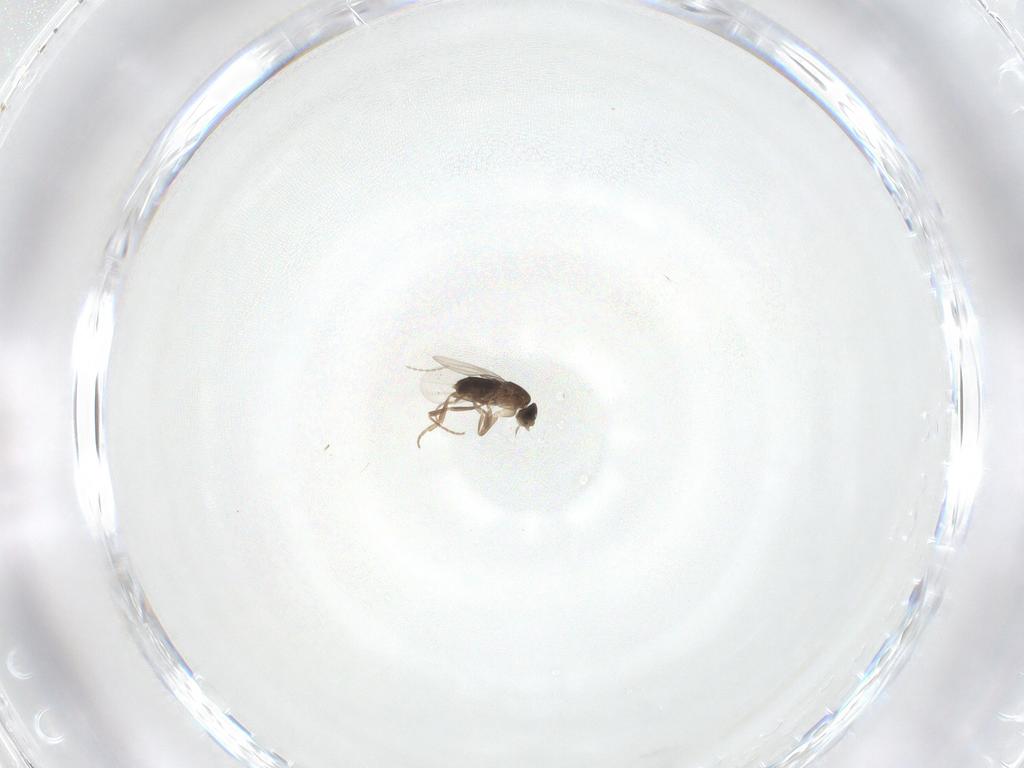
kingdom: Animalia
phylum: Arthropoda
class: Insecta
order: Diptera
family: Phoridae
